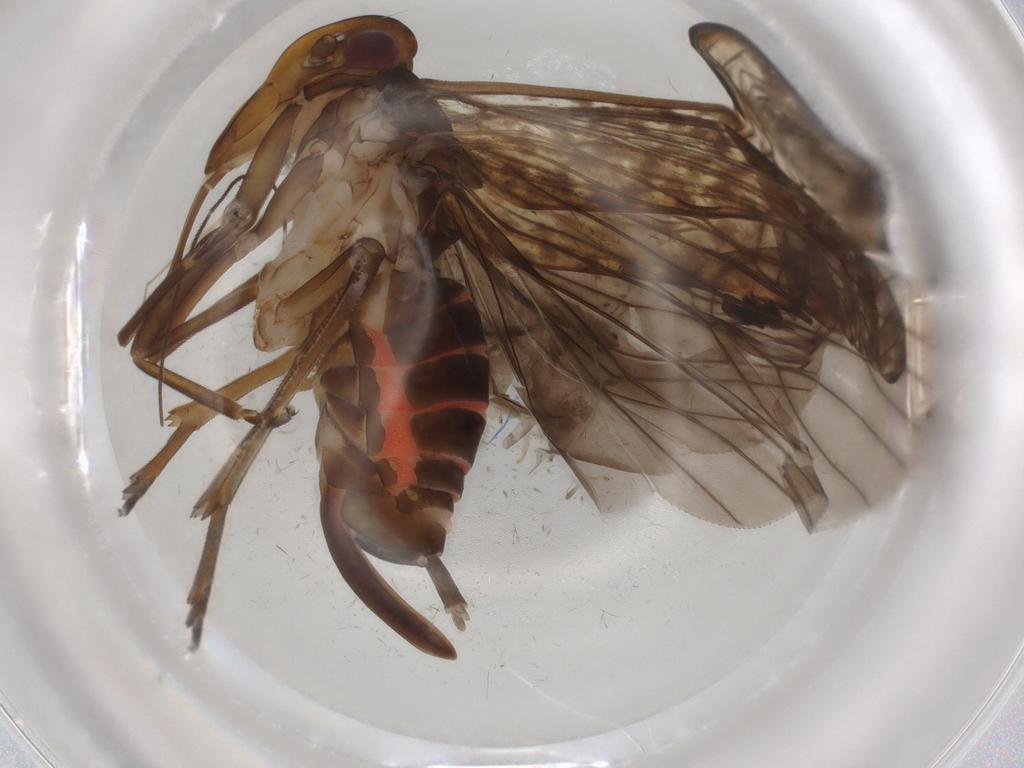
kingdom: Animalia
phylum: Arthropoda
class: Insecta
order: Hemiptera
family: Cixiidae
